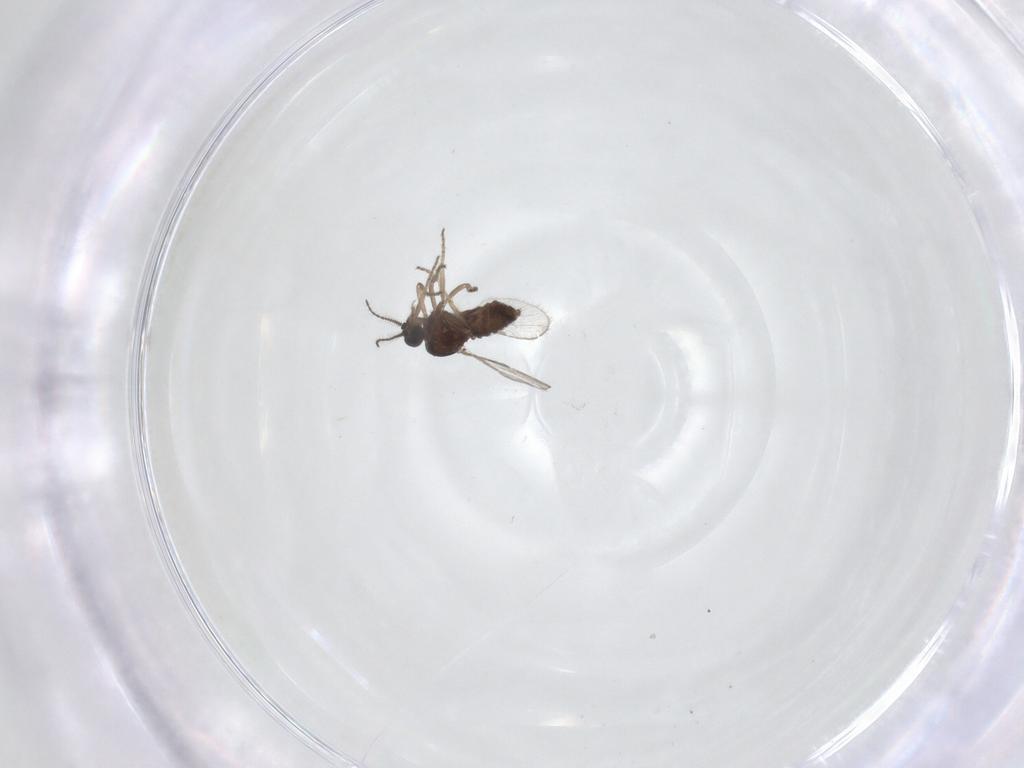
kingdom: Animalia
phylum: Arthropoda
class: Insecta
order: Diptera
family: Ceratopogonidae
